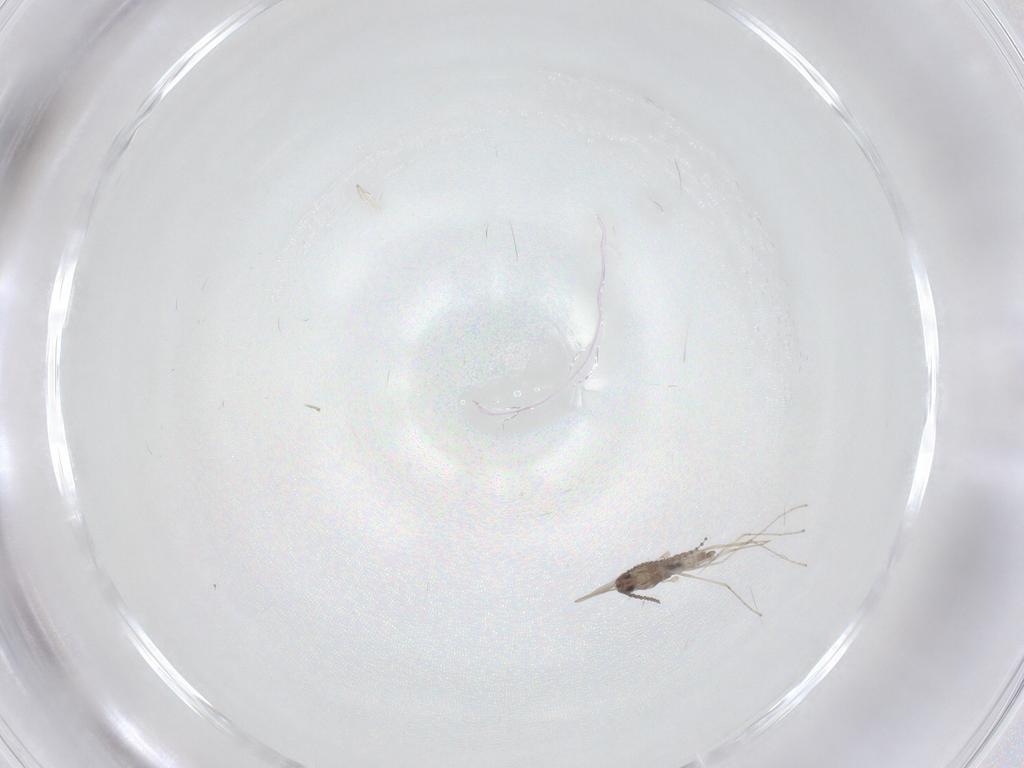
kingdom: Animalia
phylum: Arthropoda
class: Insecta
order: Diptera
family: Cecidomyiidae
